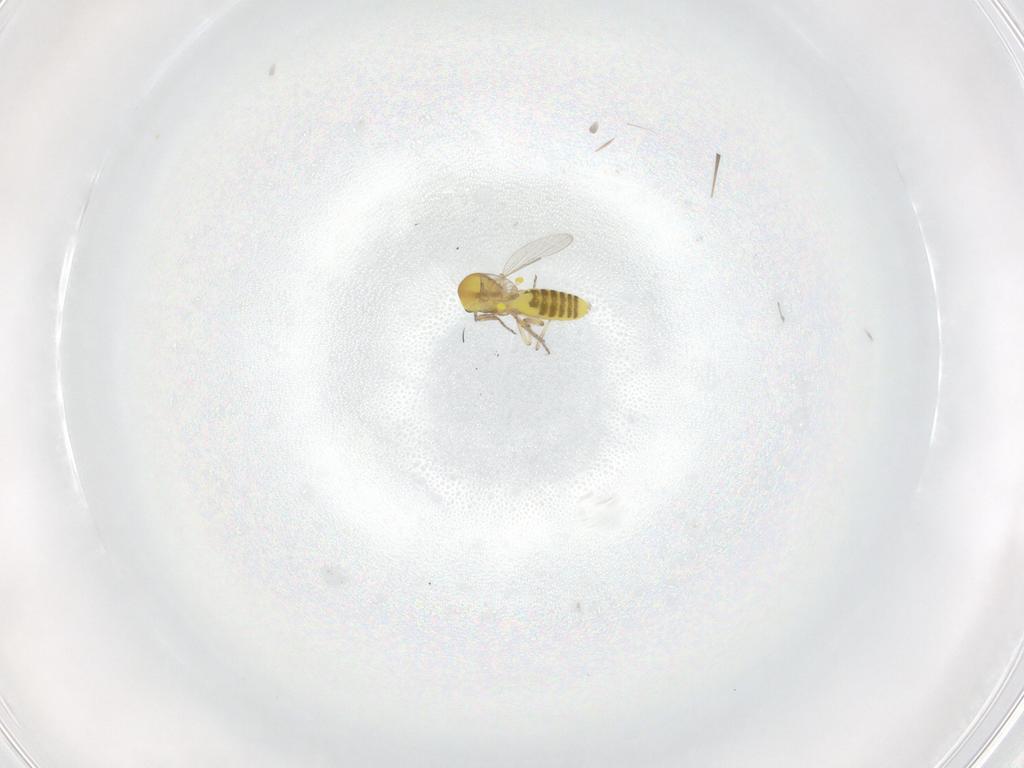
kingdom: Animalia
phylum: Arthropoda
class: Insecta
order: Diptera
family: Ceratopogonidae
